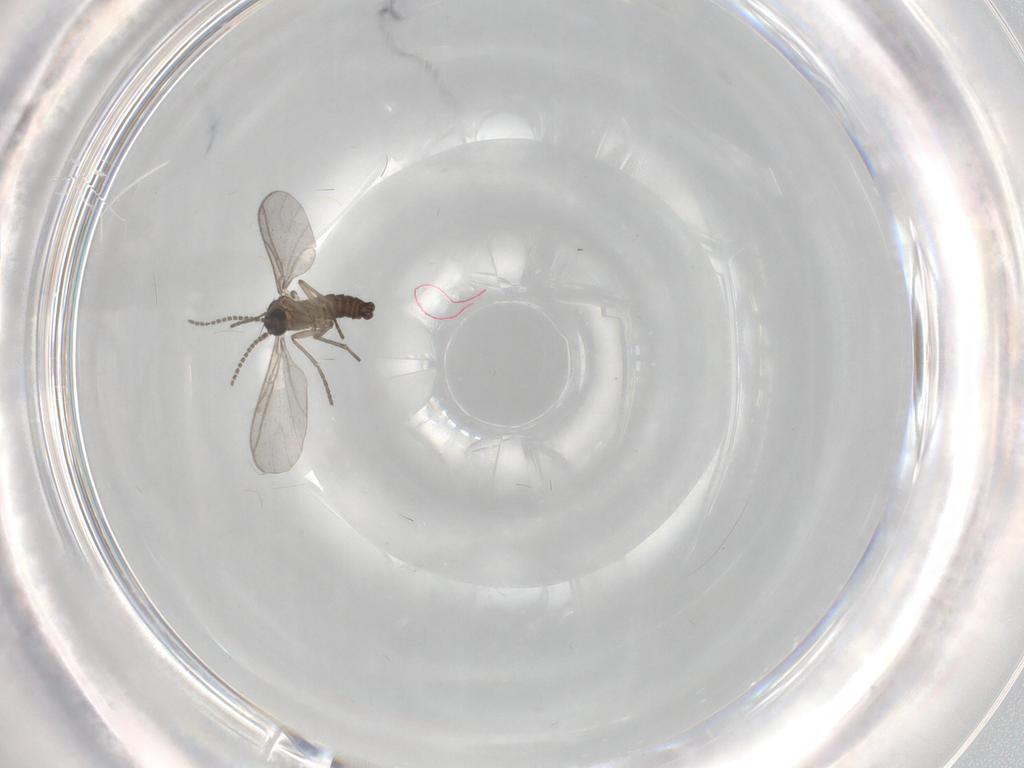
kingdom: Animalia
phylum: Arthropoda
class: Insecta
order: Diptera
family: Sciaridae
